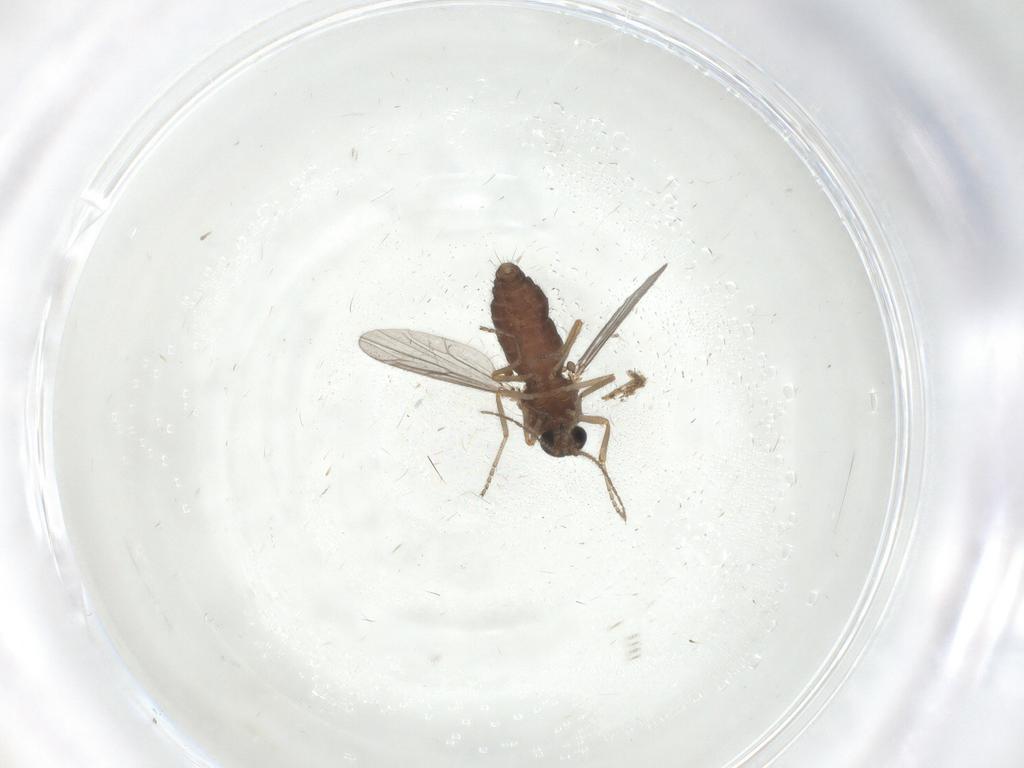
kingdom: Animalia
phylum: Arthropoda
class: Insecta
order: Diptera
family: Ceratopogonidae
